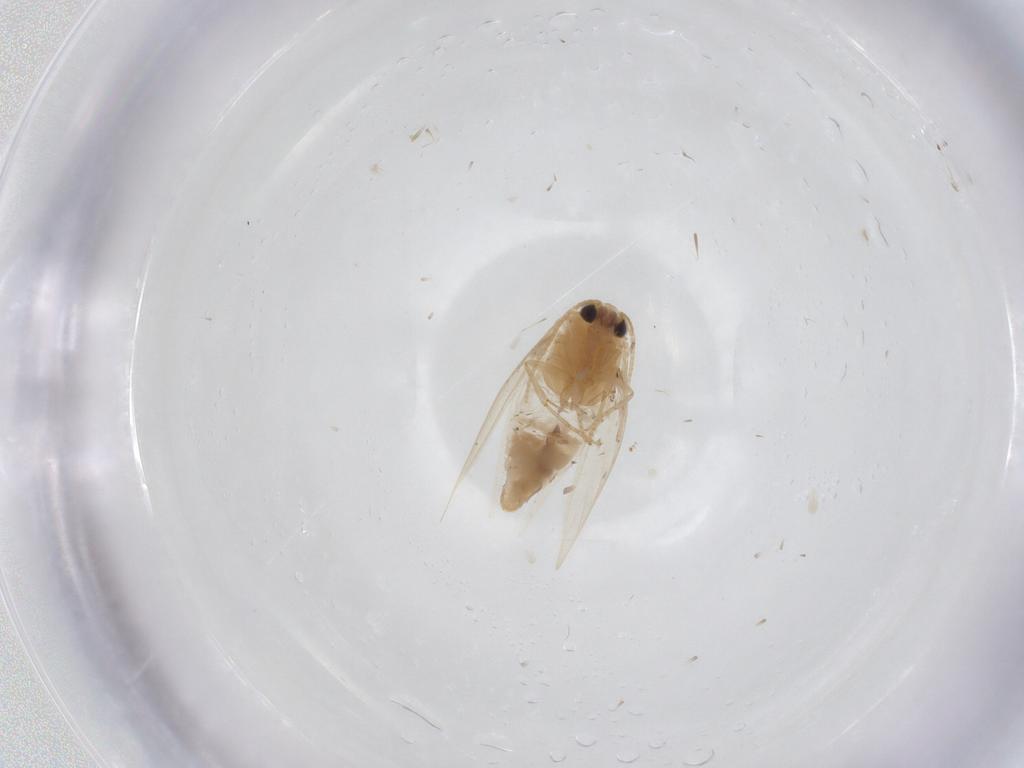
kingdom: Animalia
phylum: Arthropoda
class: Insecta
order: Lepidoptera
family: Nepticulidae
